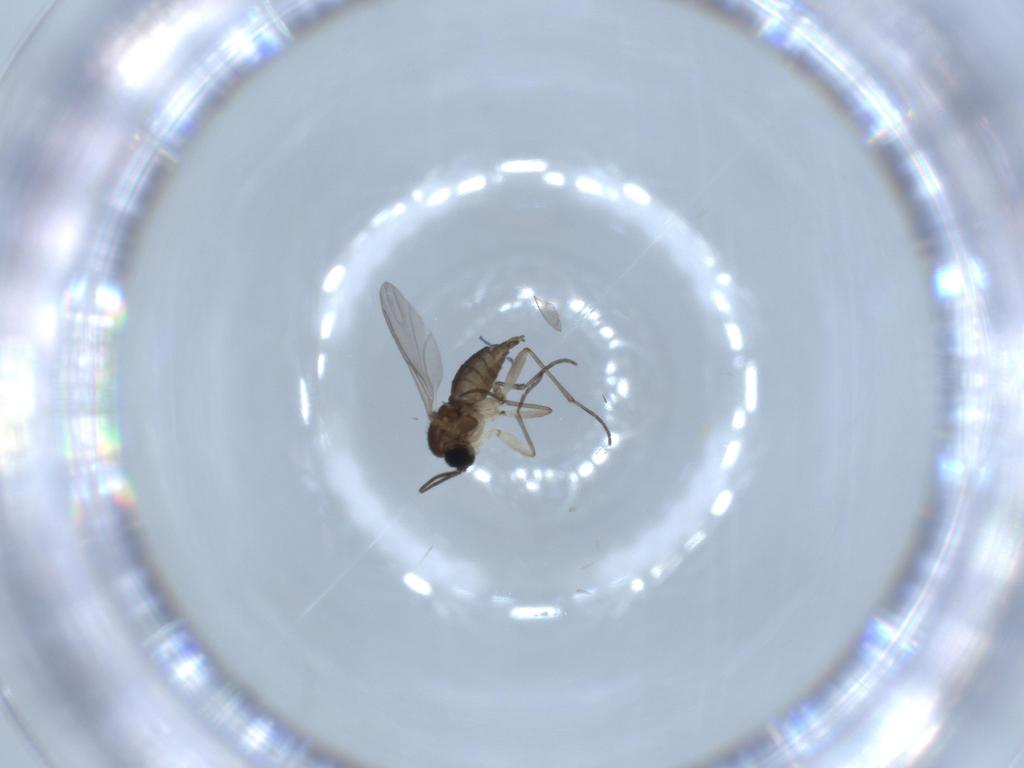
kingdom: Animalia
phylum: Arthropoda
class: Insecta
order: Diptera
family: Sciaridae
